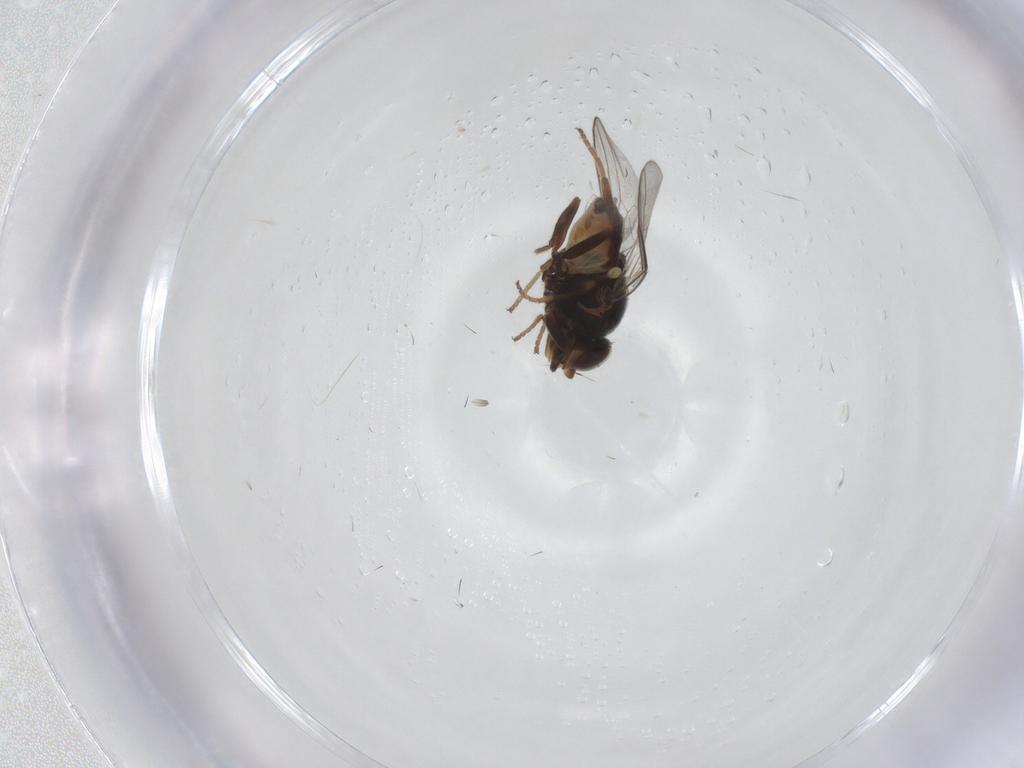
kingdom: Animalia
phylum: Arthropoda
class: Insecta
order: Diptera
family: Chloropidae
